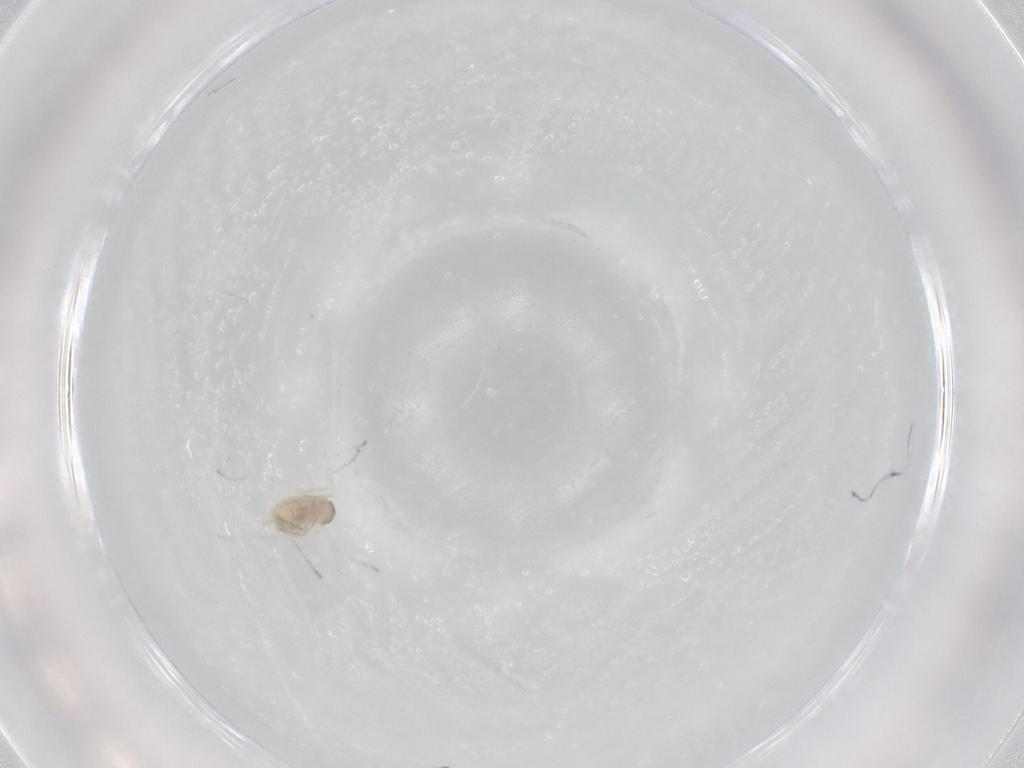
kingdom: Animalia
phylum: Arthropoda
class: Insecta
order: Diptera
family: Cecidomyiidae
